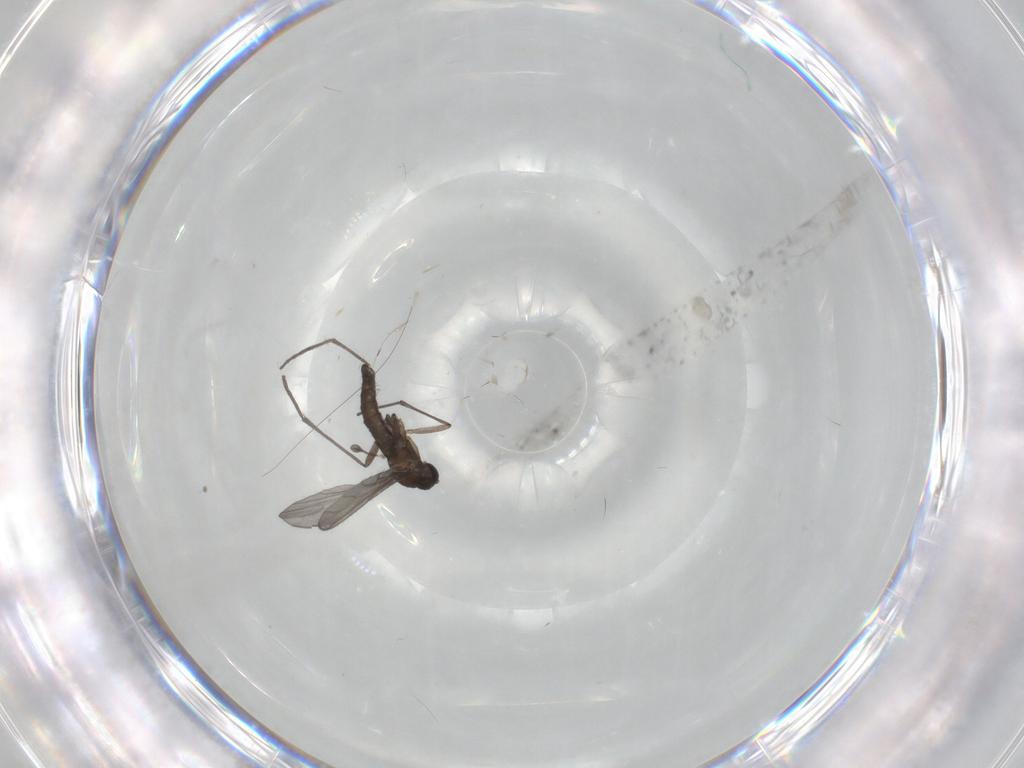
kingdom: Animalia
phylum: Arthropoda
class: Insecta
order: Diptera
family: Sciaridae
